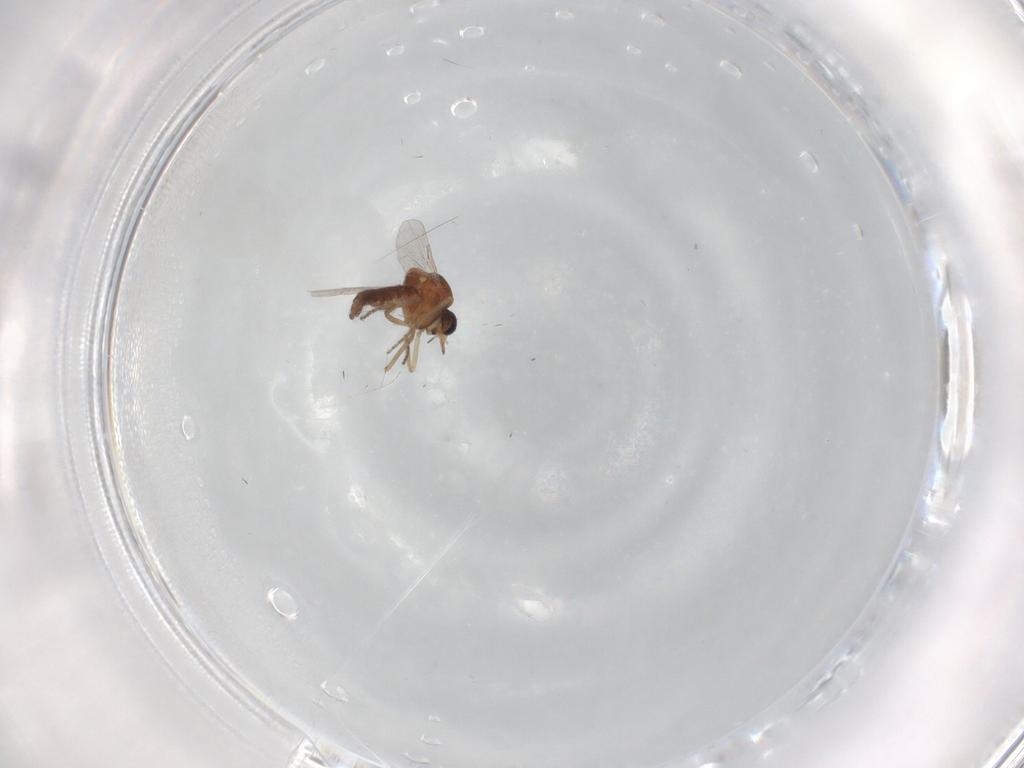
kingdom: Animalia
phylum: Arthropoda
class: Insecta
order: Diptera
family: Ceratopogonidae
